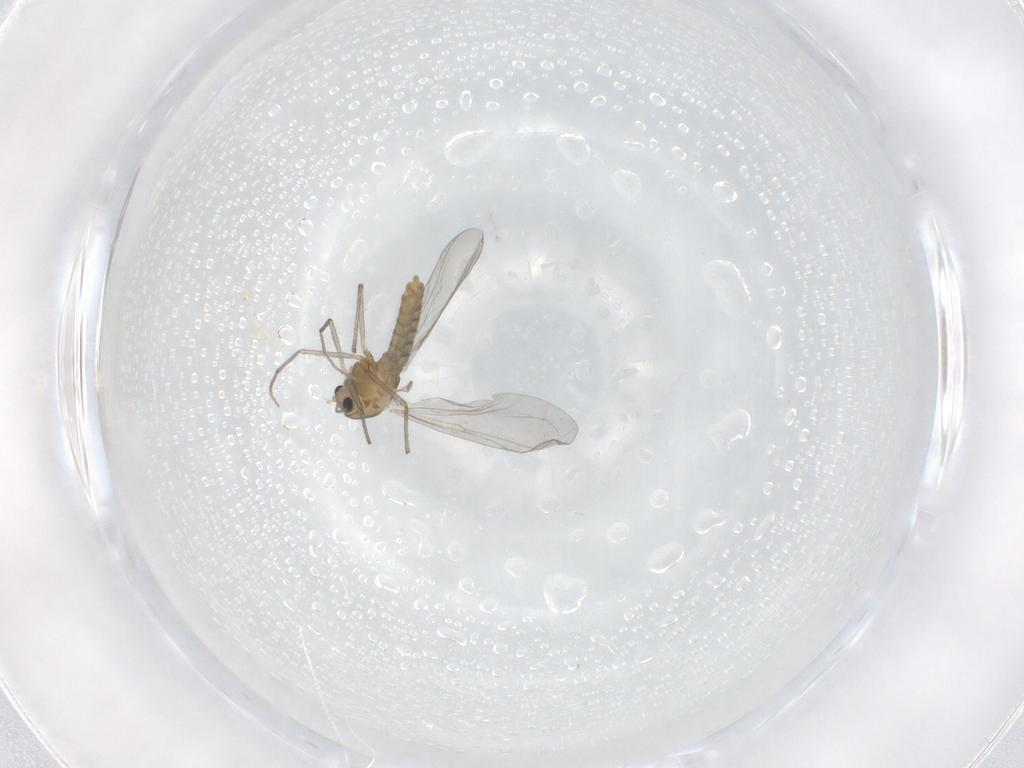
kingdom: Animalia
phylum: Arthropoda
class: Insecta
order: Diptera
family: Chironomidae
